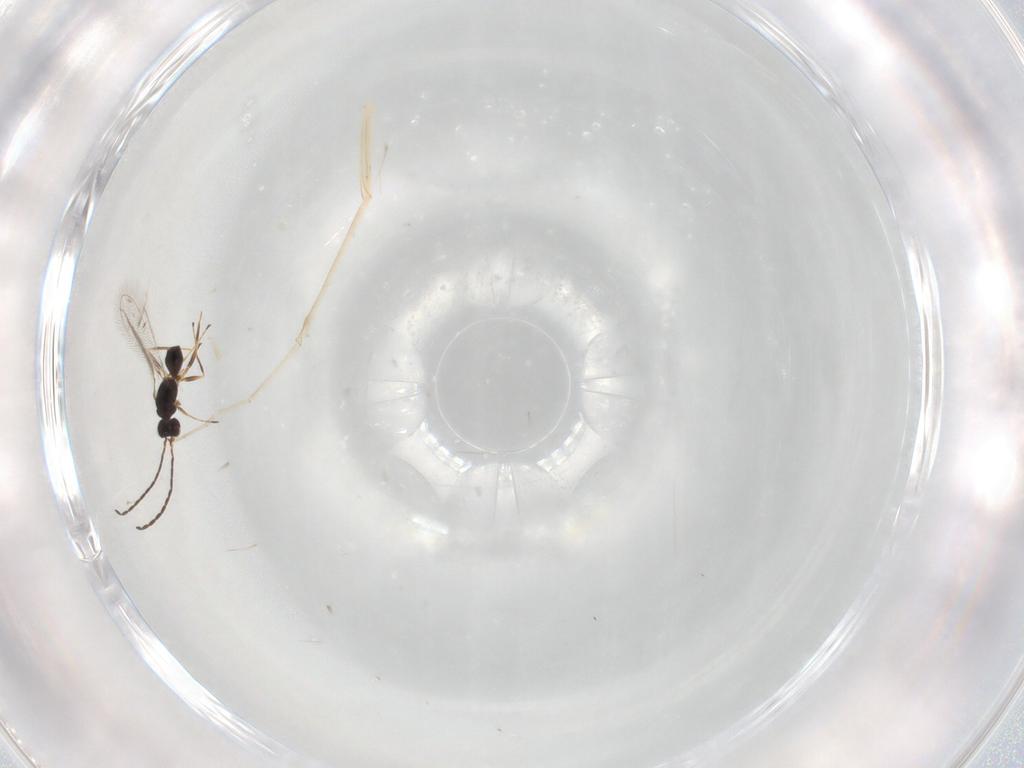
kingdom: Animalia
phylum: Arthropoda
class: Insecta
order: Hymenoptera
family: Mymaridae
